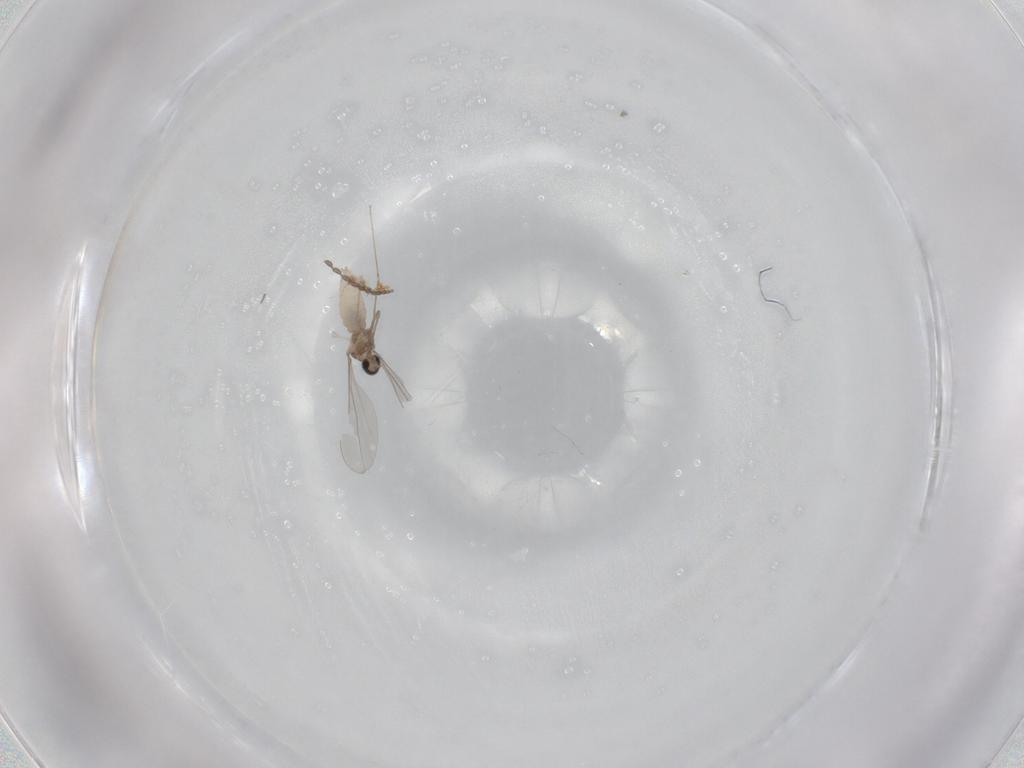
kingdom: Animalia
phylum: Arthropoda
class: Insecta
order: Diptera
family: Cecidomyiidae
